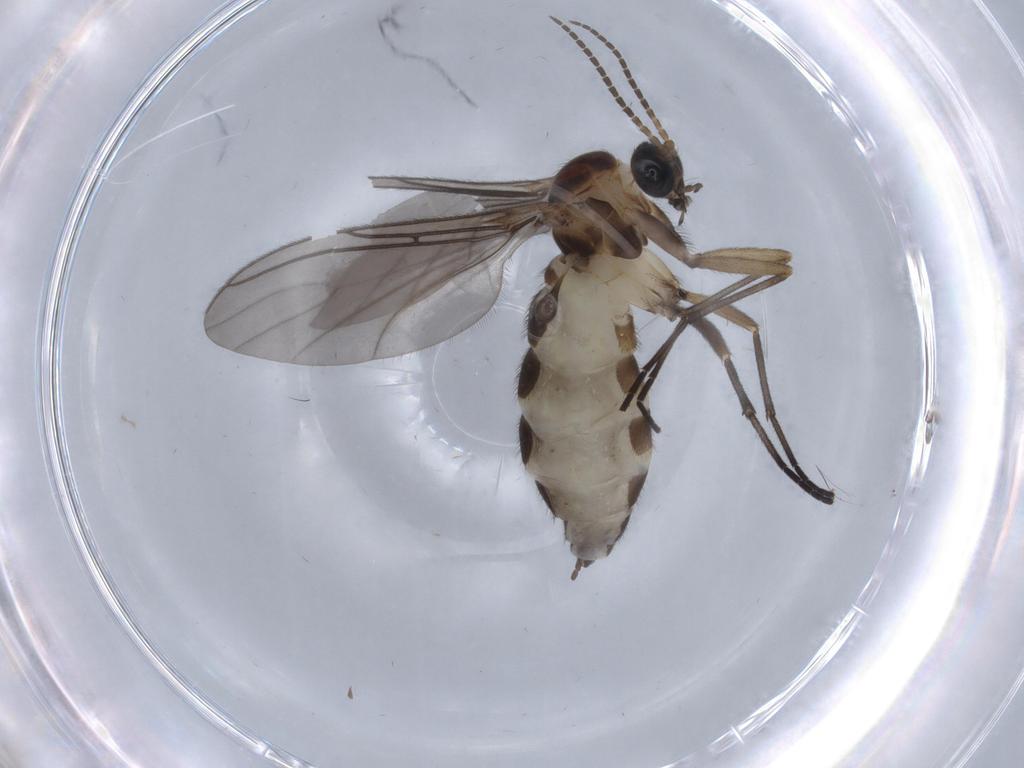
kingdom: Animalia
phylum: Arthropoda
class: Insecta
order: Diptera
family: Sciaridae
